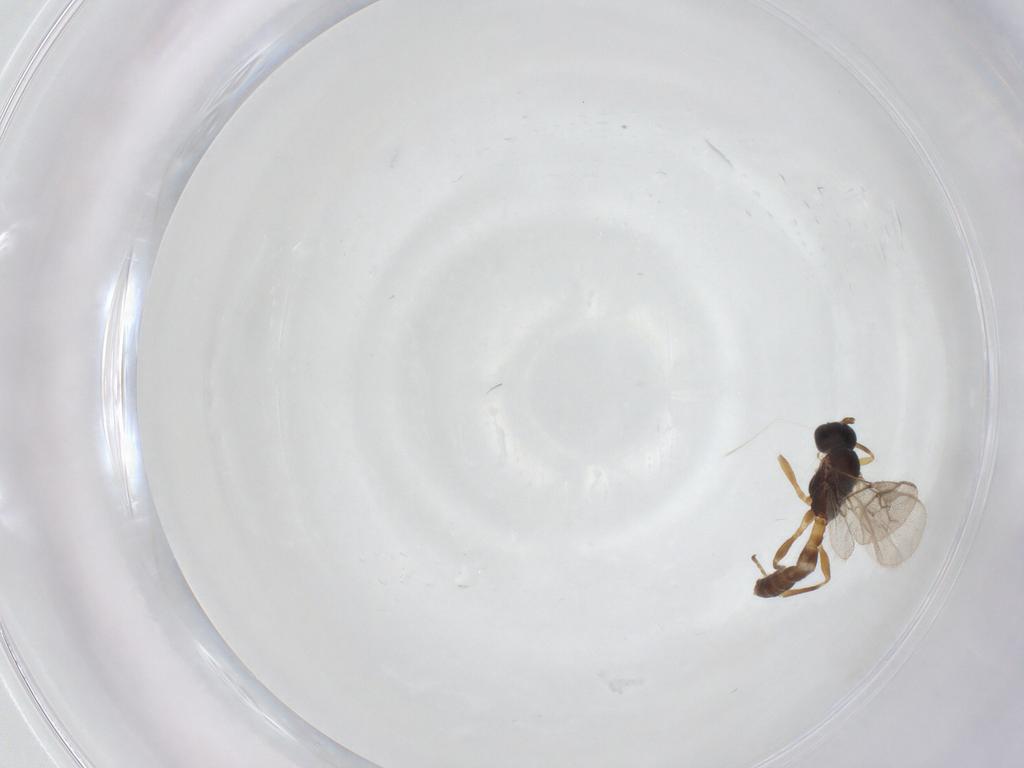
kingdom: Animalia
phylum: Arthropoda
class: Insecta
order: Hymenoptera
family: Braconidae
